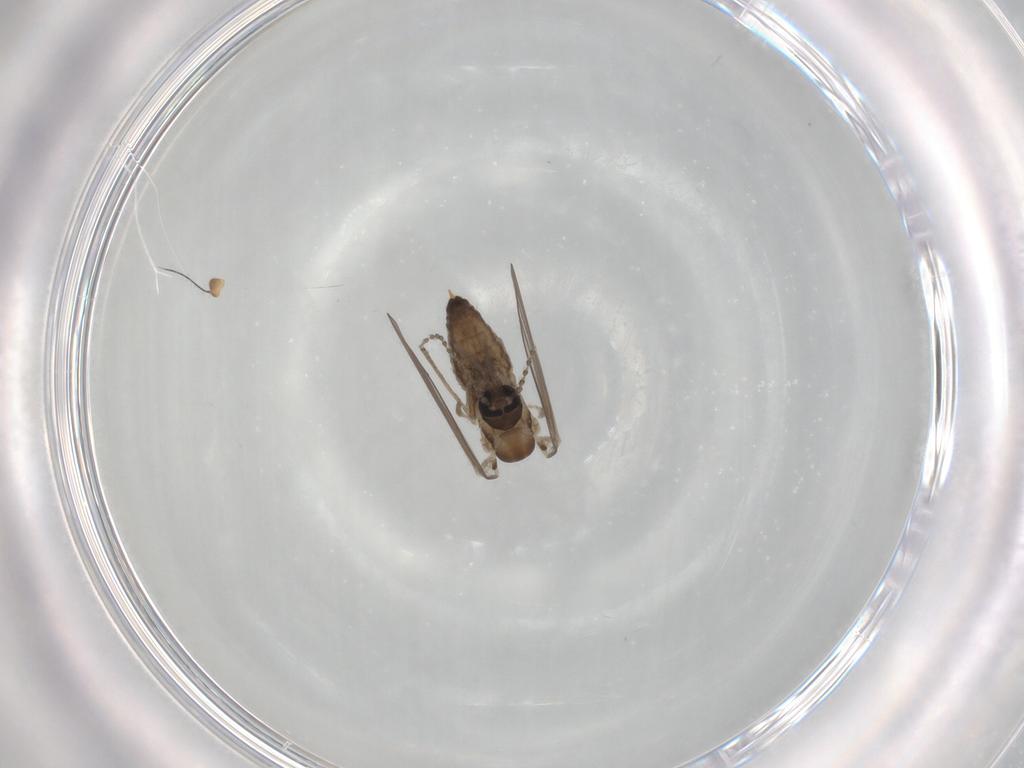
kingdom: Animalia
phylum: Arthropoda
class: Insecta
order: Diptera
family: Psychodidae
